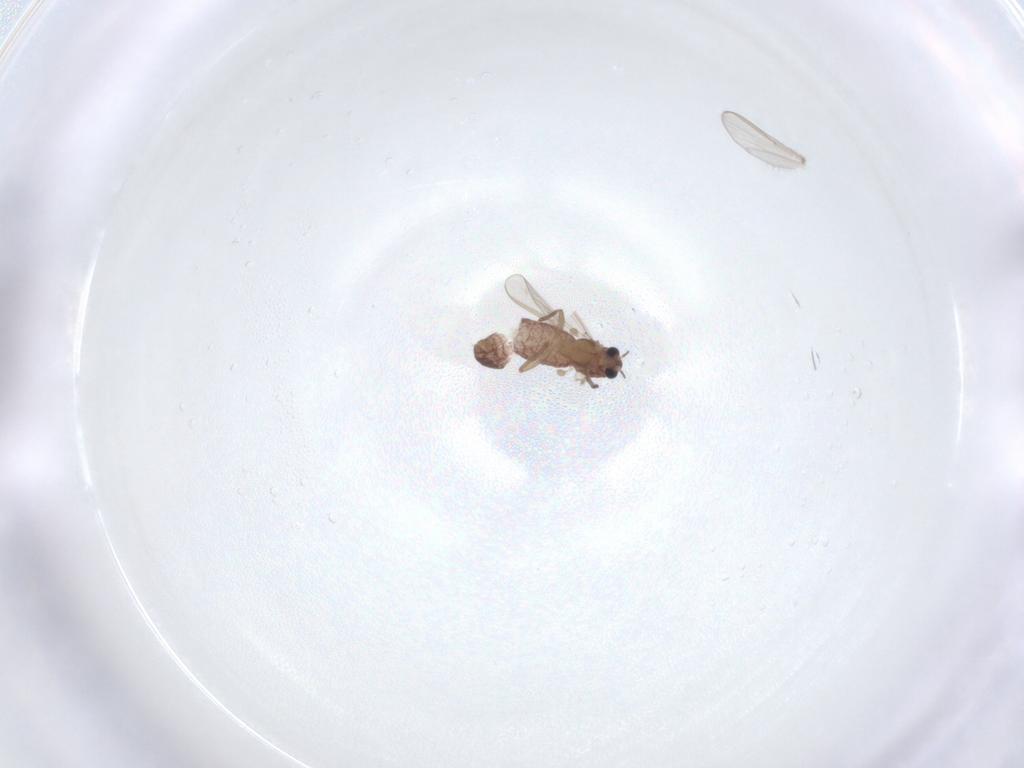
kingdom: Animalia
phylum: Arthropoda
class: Insecta
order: Diptera
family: Chironomidae
